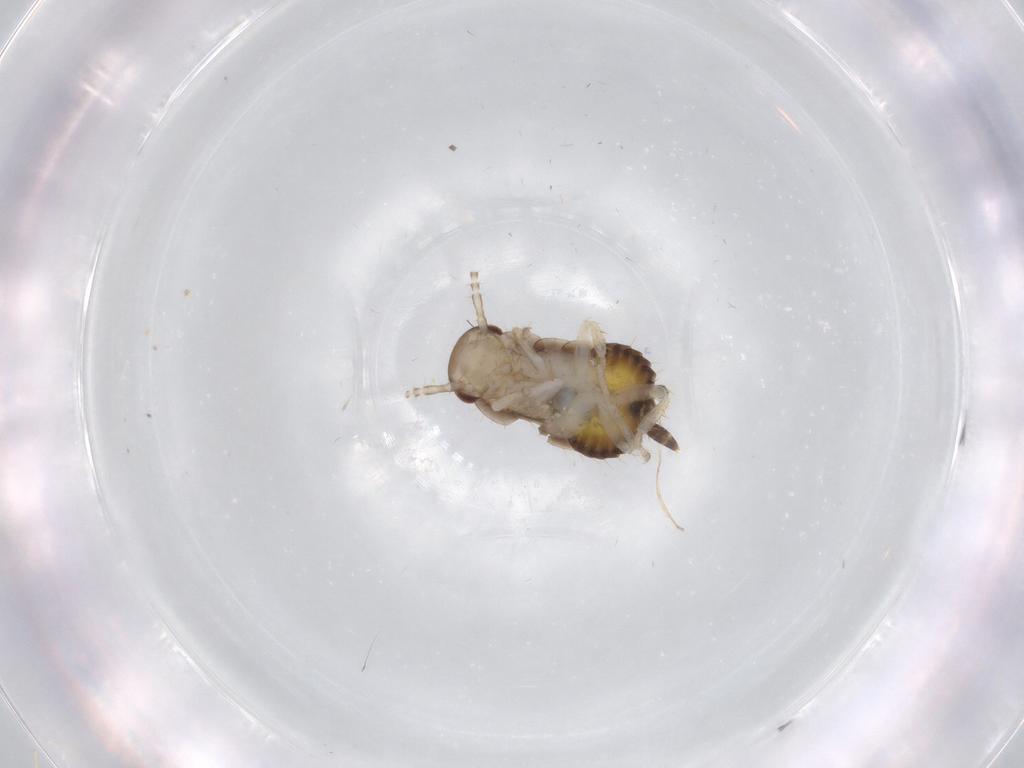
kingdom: Animalia
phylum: Arthropoda
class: Insecta
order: Blattodea
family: Ectobiidae
